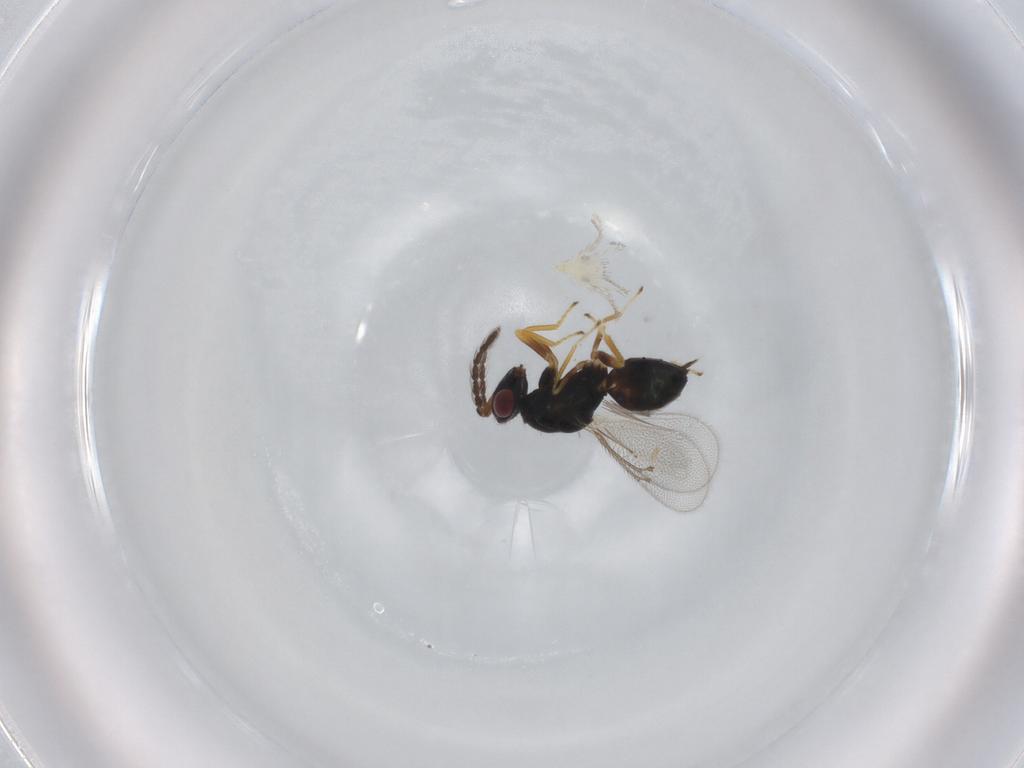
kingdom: Animalia
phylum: Arthropoda
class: Insecta
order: Hymenoptera
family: Eulophidae
